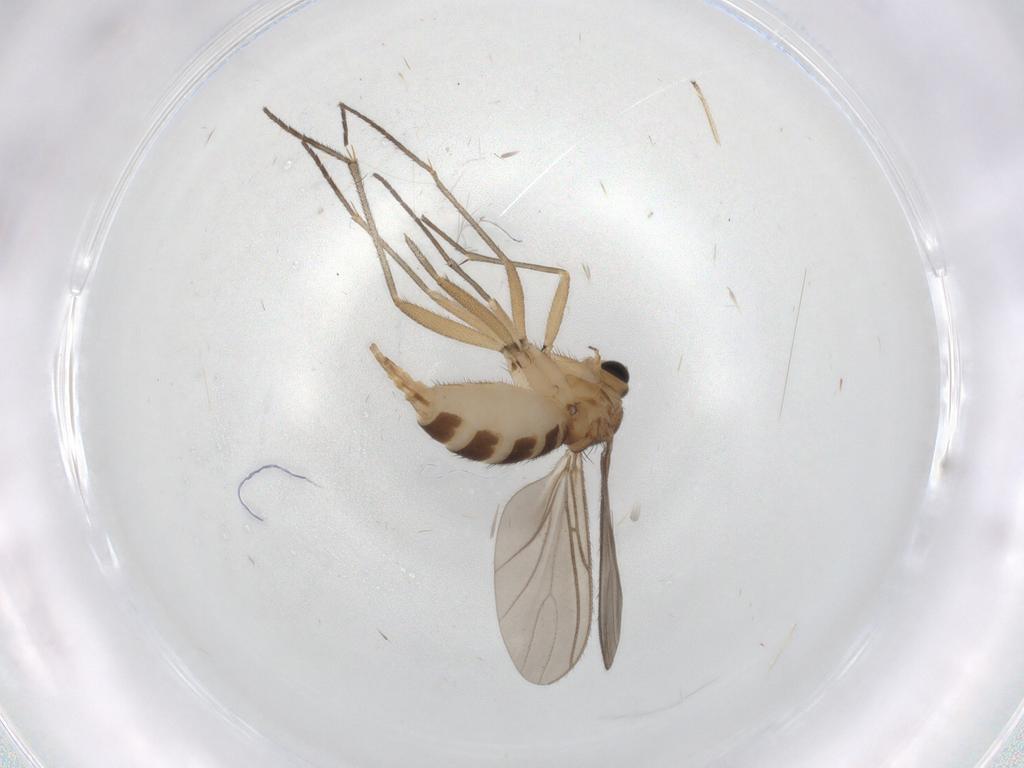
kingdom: Animalia
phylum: Arthropoda
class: Insecta
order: Diptera
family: Sciaridae
